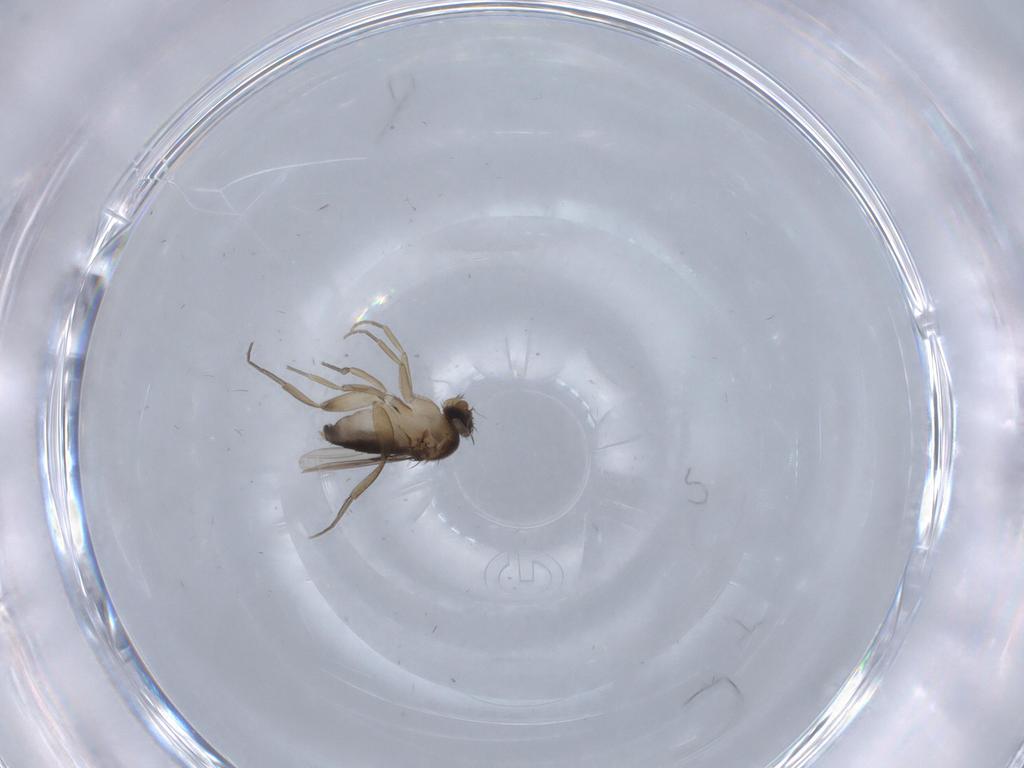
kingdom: Animalia
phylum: Arthropoda
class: Insecta
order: Diptera
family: Phoridae
